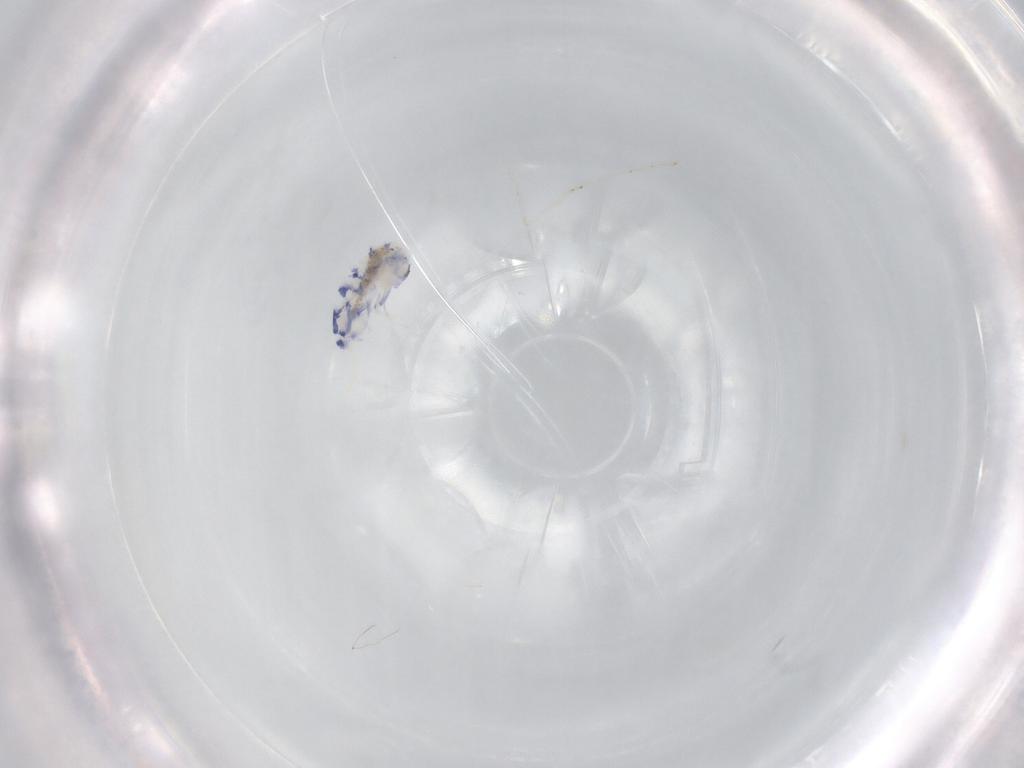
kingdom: Animalia
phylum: Arthropoda
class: Collembola
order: Entomobryomorpha
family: Entomobryidae
